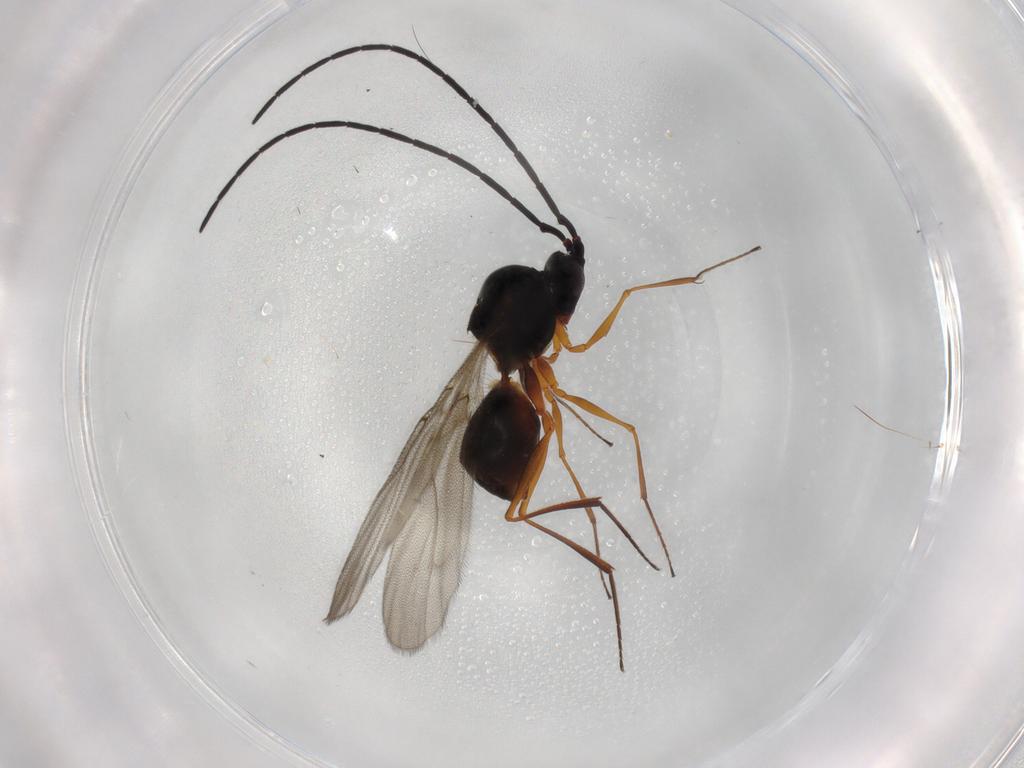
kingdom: Animalia
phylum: Arthropoda
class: Insecta
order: Hymenoptera
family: Figitidae
